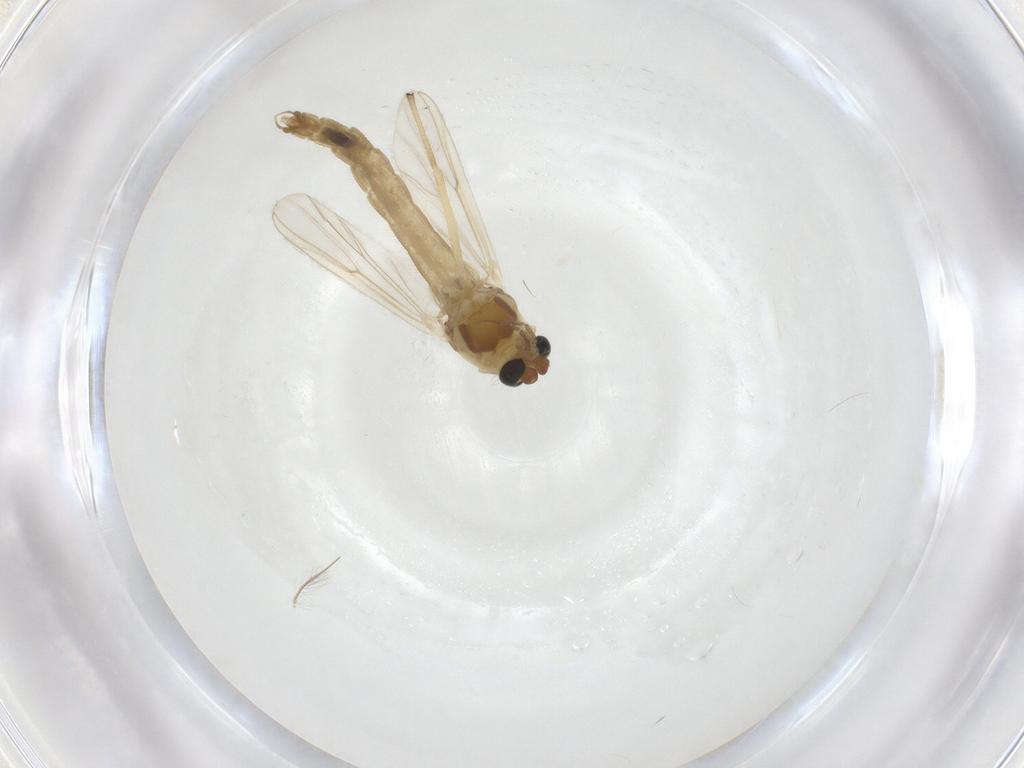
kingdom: Animalia
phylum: Arthropoda
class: Insecta
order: Diptera
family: Chironomidae
